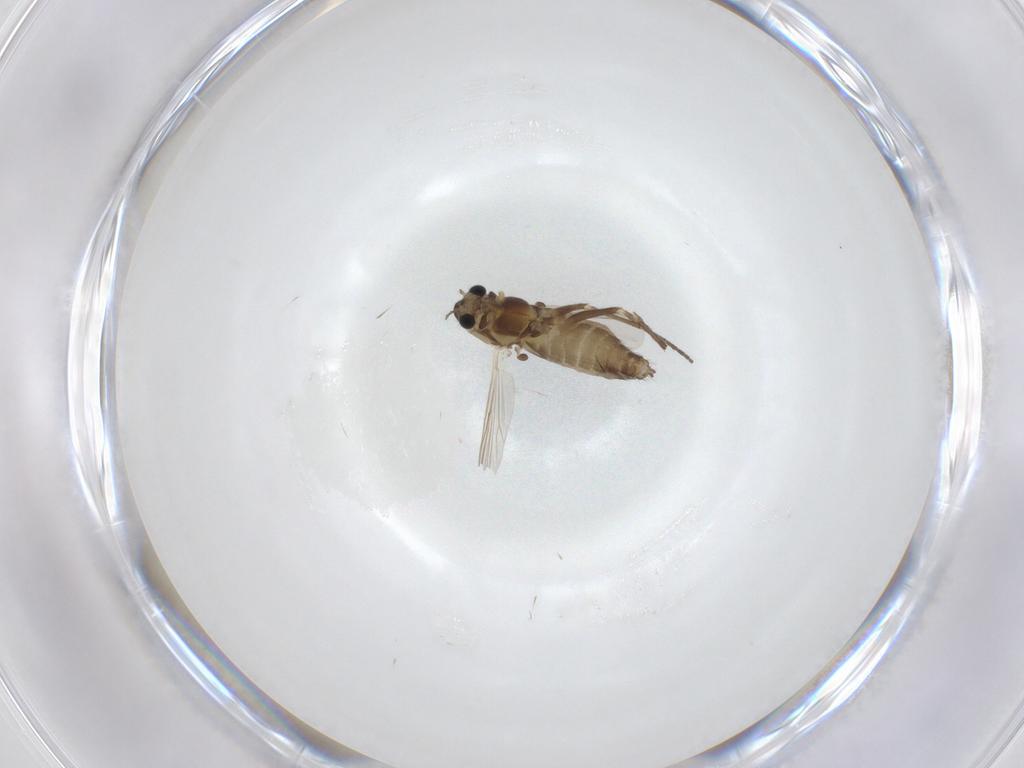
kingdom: Animalia
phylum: Arthropoda
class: Insecta
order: Diptera
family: Chironomidae
